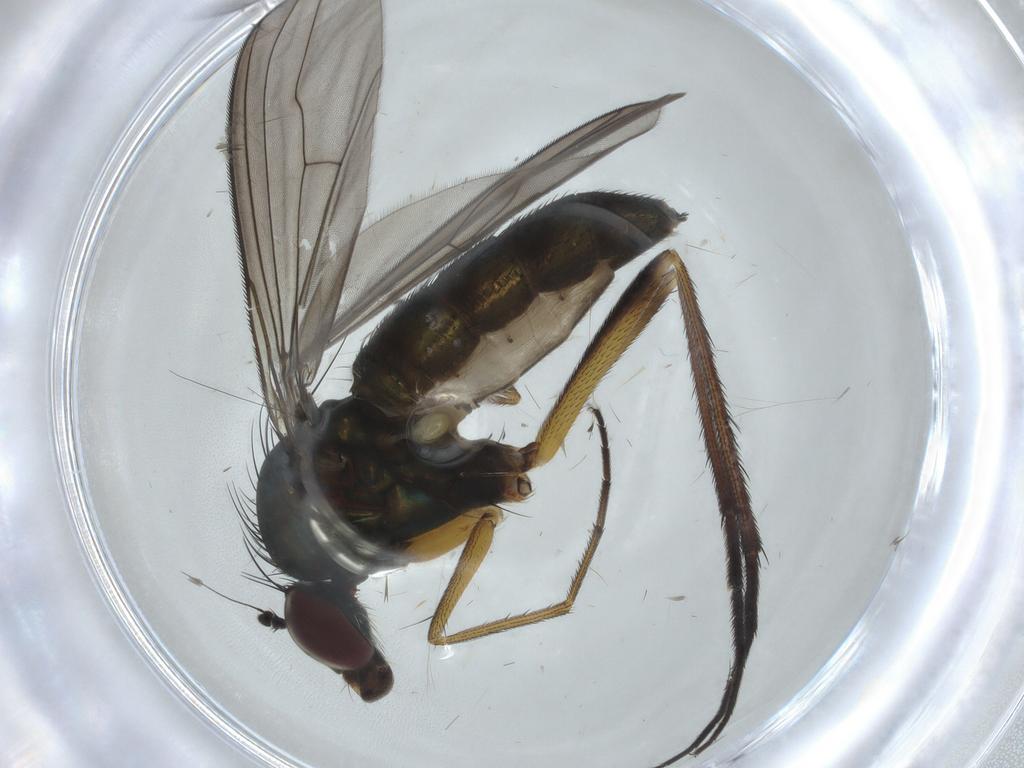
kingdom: Animalia
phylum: Arthropoda
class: Insecta
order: Diptera
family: Dolichopodidae
